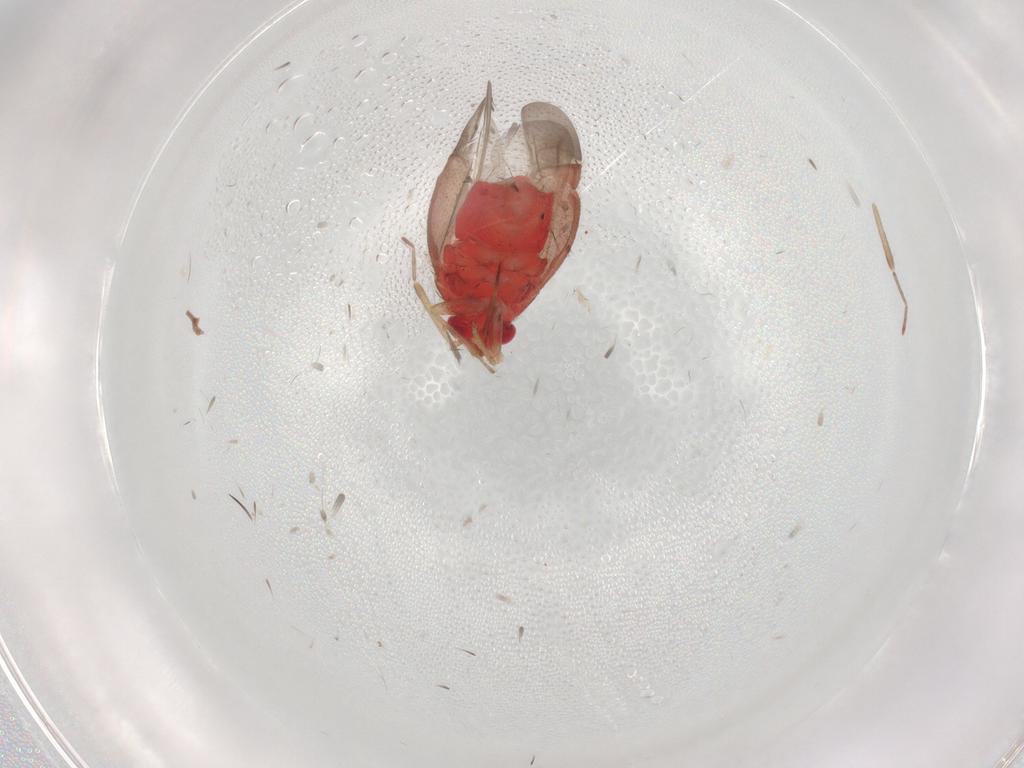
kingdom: Animalia
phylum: Arthropoda
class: Insecta
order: Hemiptera
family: Miridae
